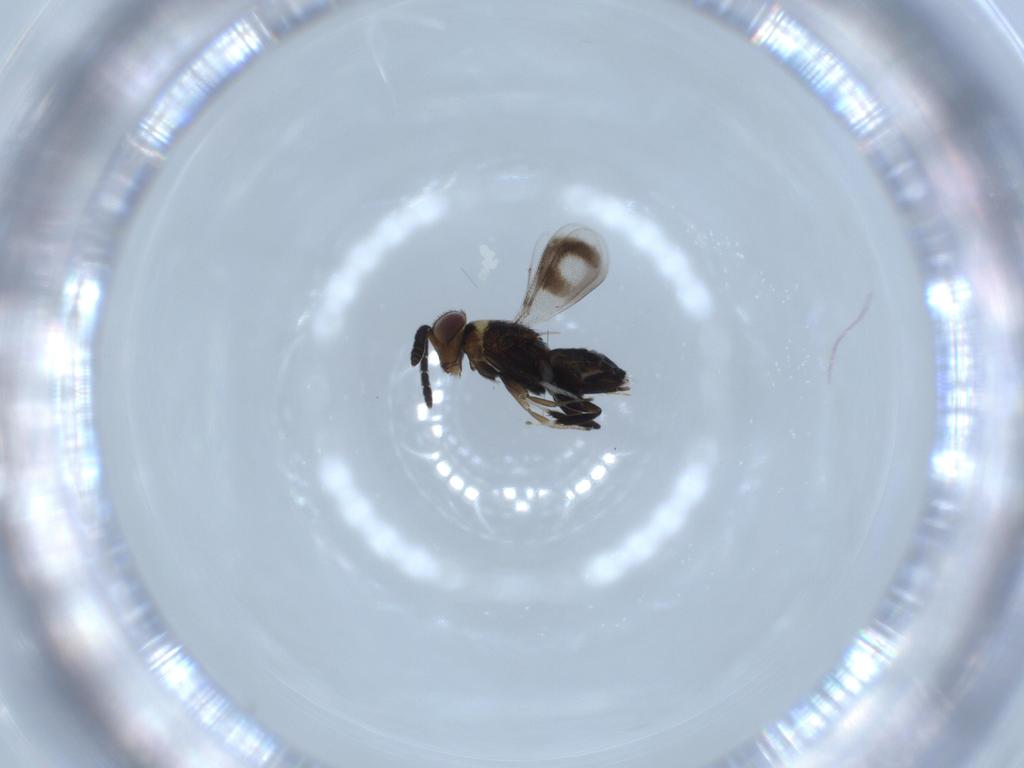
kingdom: Animalia
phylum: Arthropoda
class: Insecta
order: Hymenoptera
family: Aphelinidae
